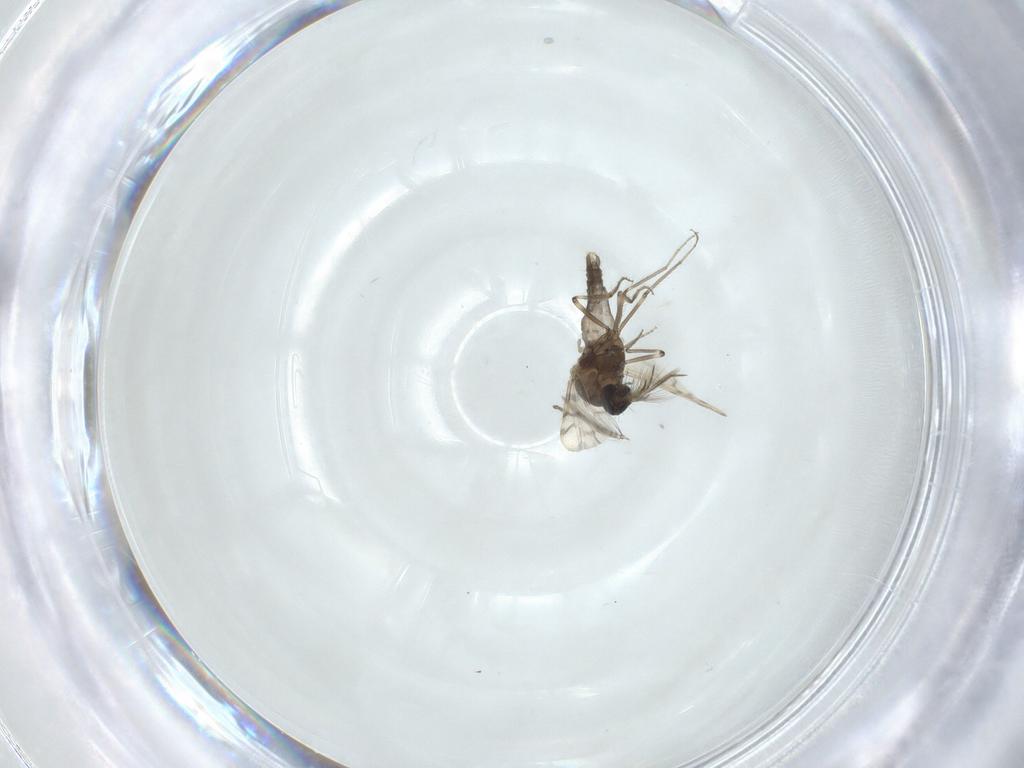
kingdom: Animalia
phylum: Arthropoda
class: Insecta
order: Diptera
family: Ceratopogonidae
